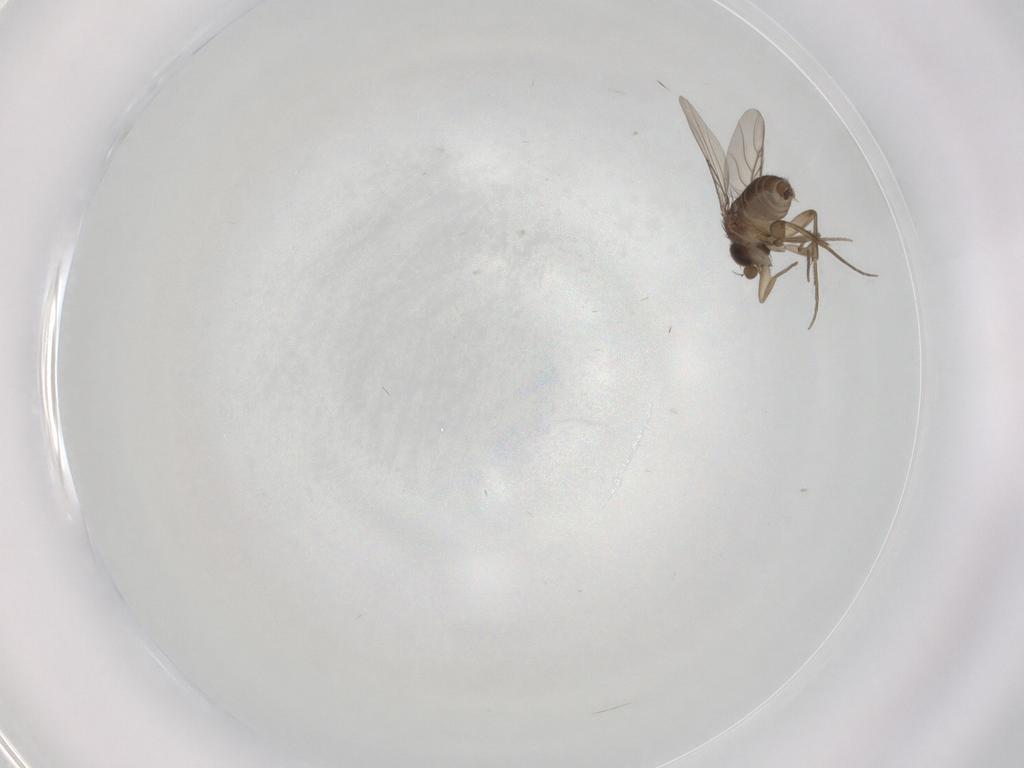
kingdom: Animalia
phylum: Arthropoda
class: Insecta
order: Diptera
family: Phoridae
